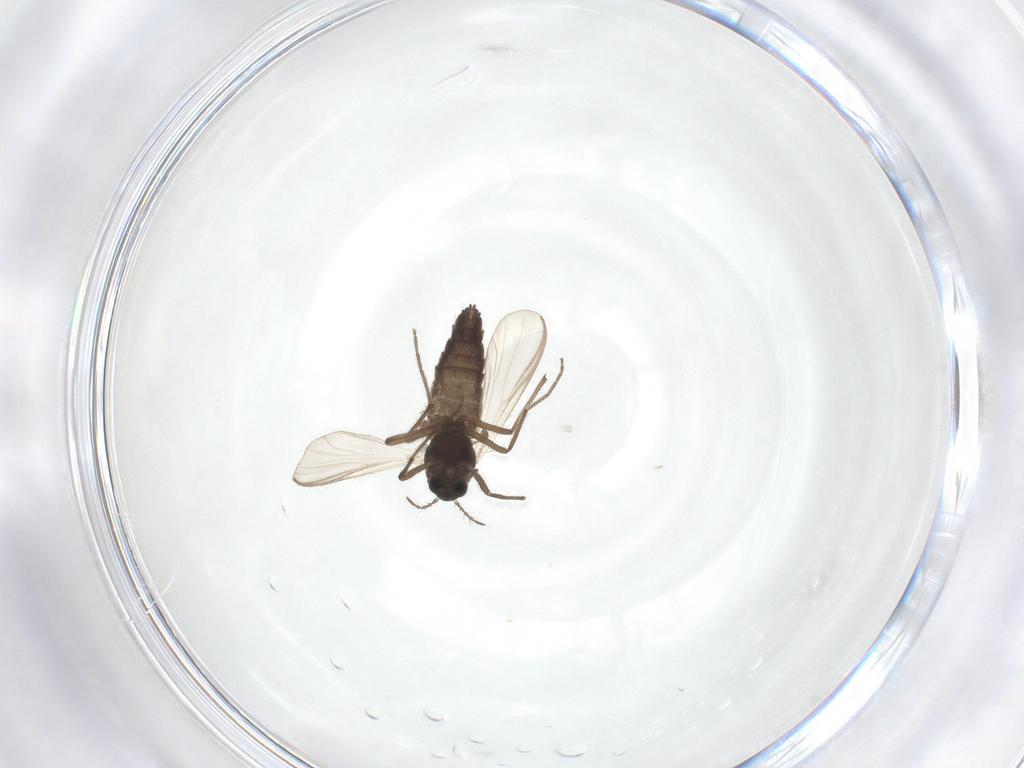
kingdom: Animalia
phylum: Arthropoda
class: Insecta
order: Diptera
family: Chironomidae
